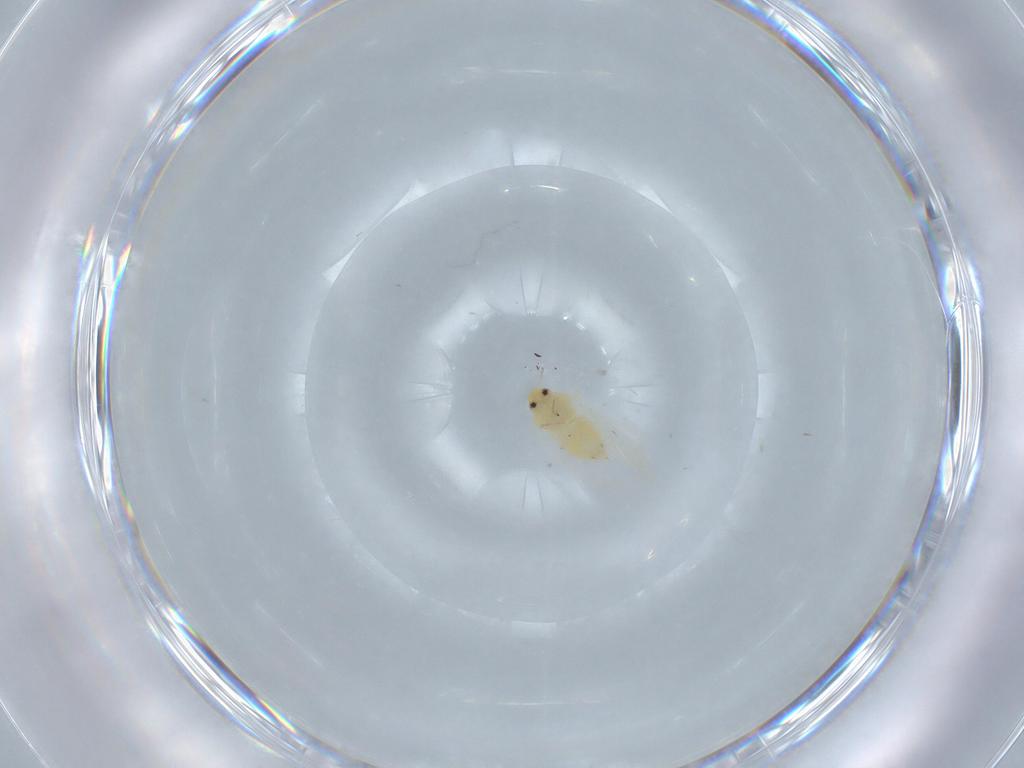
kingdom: Animalia
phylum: Arthropoda
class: Insecta
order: Hemiptera
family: Aleyrodidae
